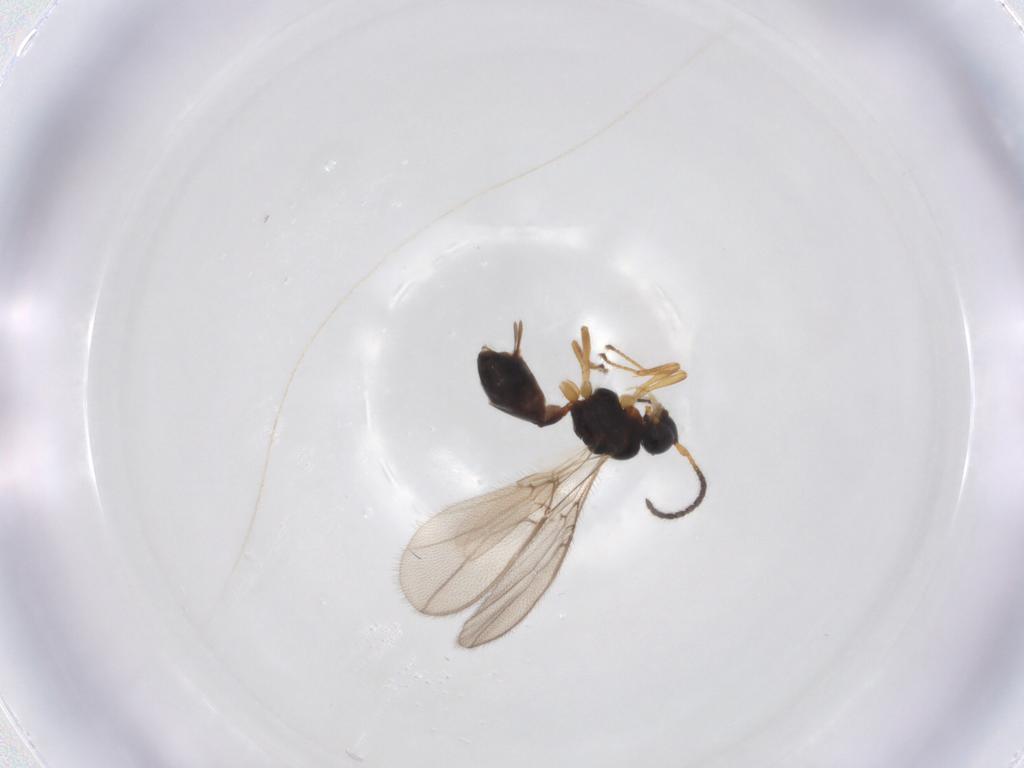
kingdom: Animalia
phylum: Arthropoda
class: Insecta
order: Hymenoptera
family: Braconidae
